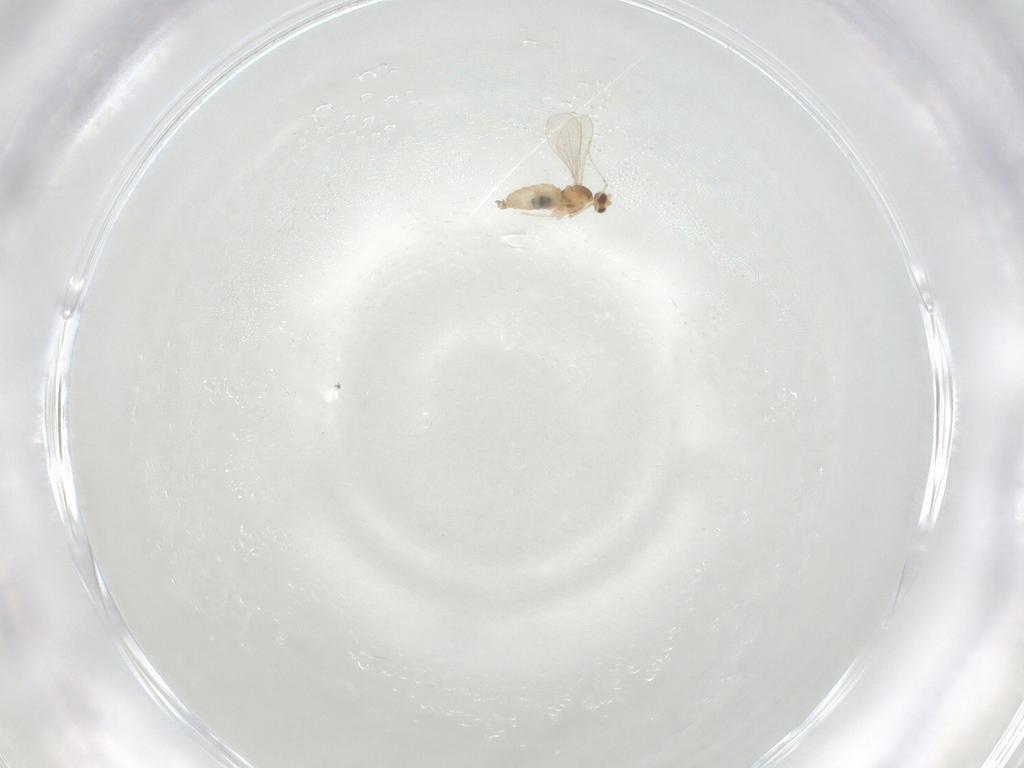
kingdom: Animalia
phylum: Arthropoda
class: Insecta
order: Diptera
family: Cecidomyiidae
